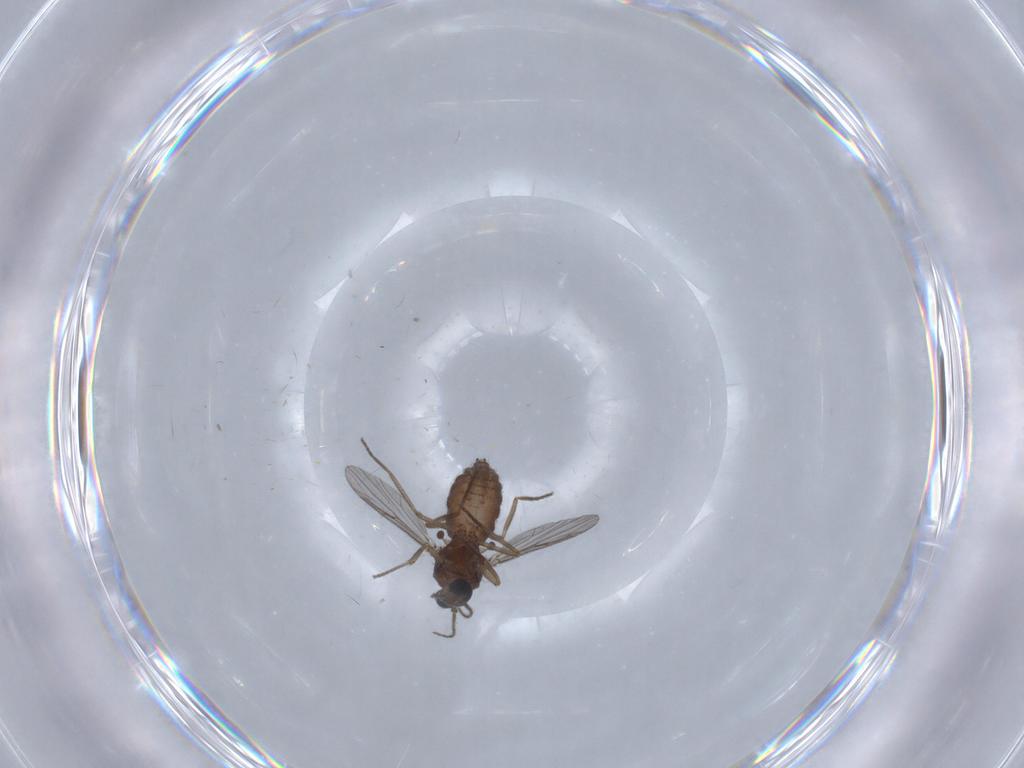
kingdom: Animalia
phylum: Arthropoda
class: Insecta
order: Diptera
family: Ceratopogonidae
